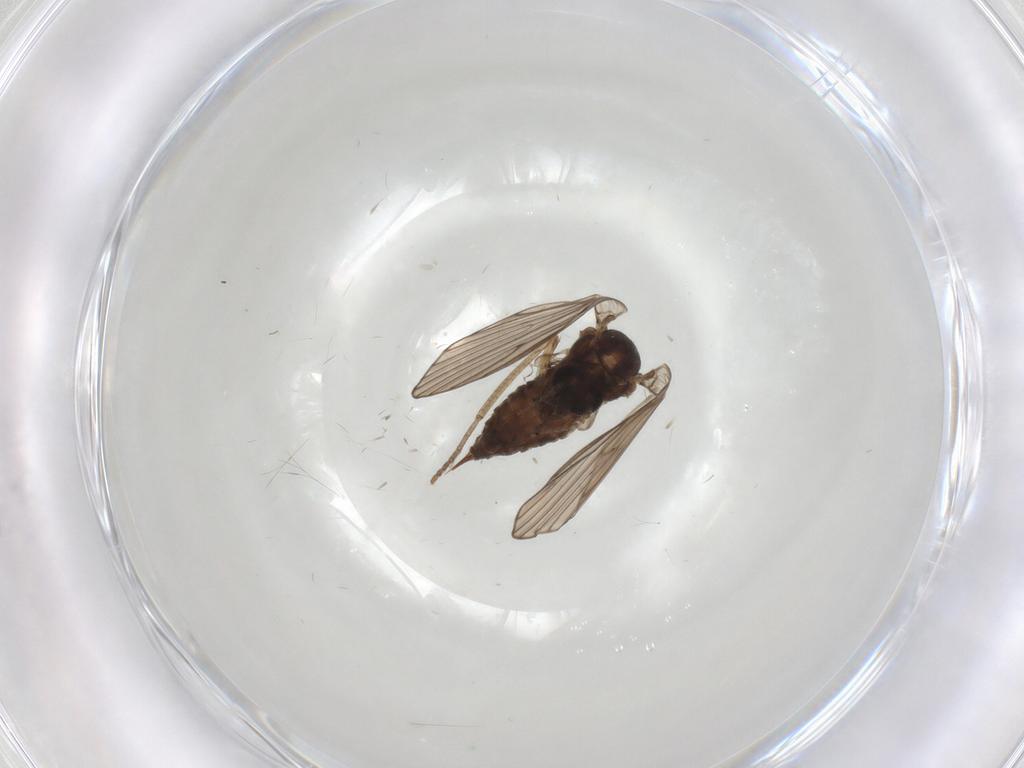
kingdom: Animalia
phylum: Arthropoda
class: Insecta
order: Diptera
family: Psychodidae
